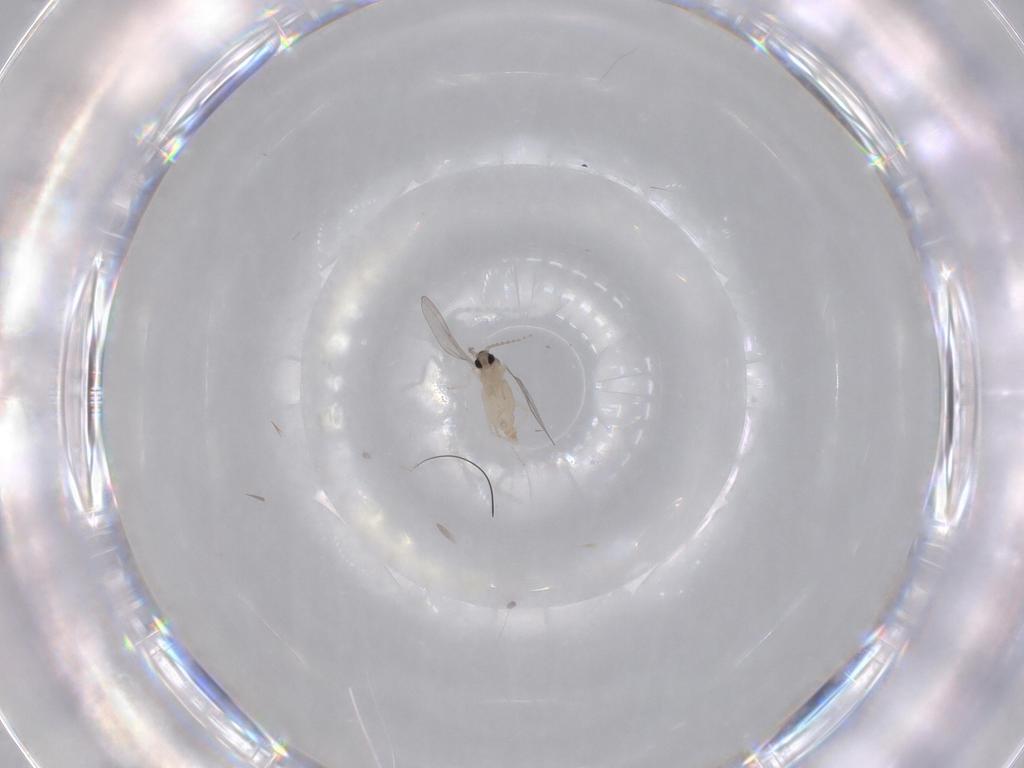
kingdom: Animalia
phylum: Arthropoda
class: Insecta
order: Diptera
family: Cecidomyiidae
